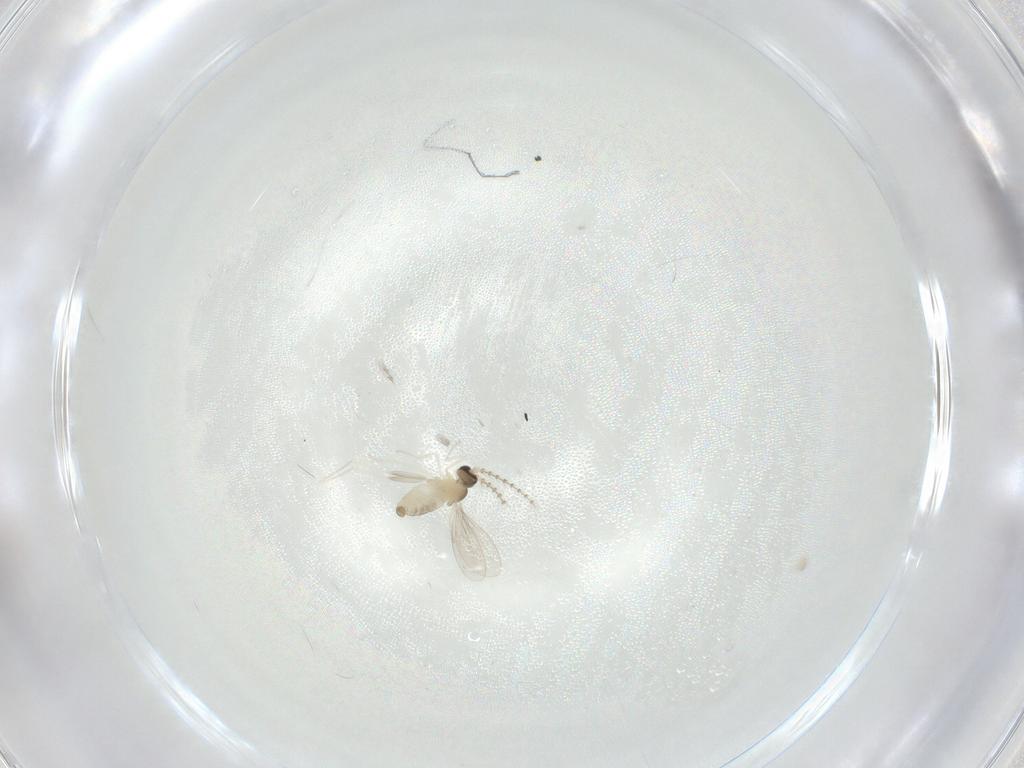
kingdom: Animalia
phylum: Arthropoda
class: Insecta
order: Diptera
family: Cecidomyiidae
